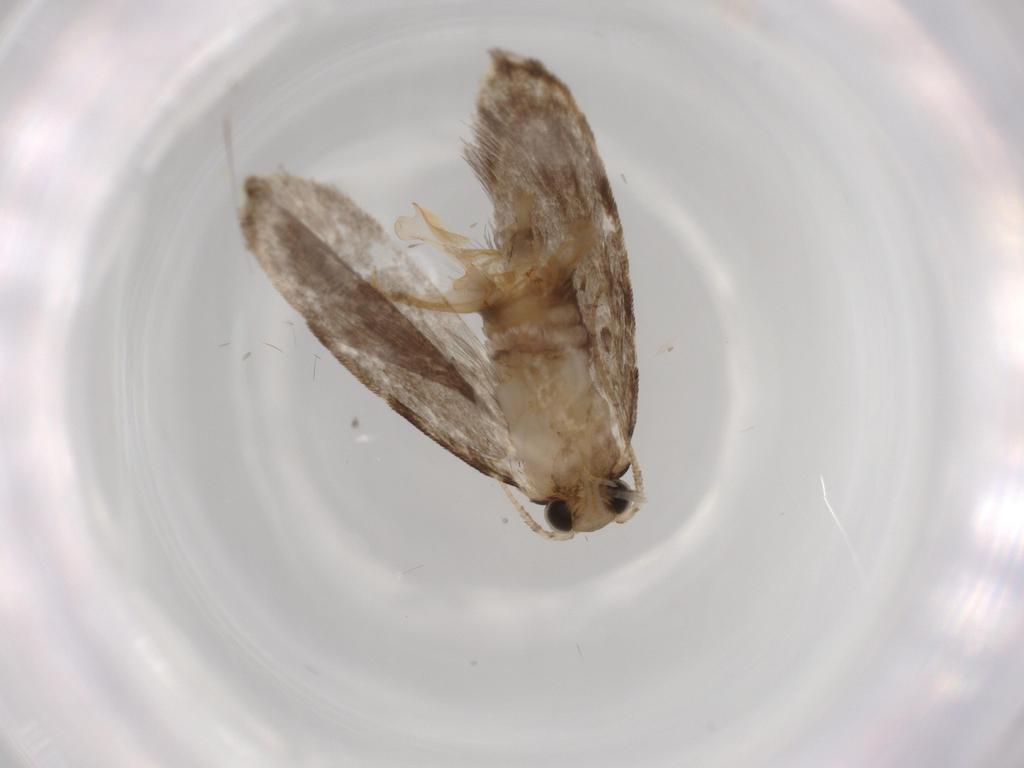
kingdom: Animalia
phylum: Arthropoda
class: Insecta
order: Lepidoptera
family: Tineidae
